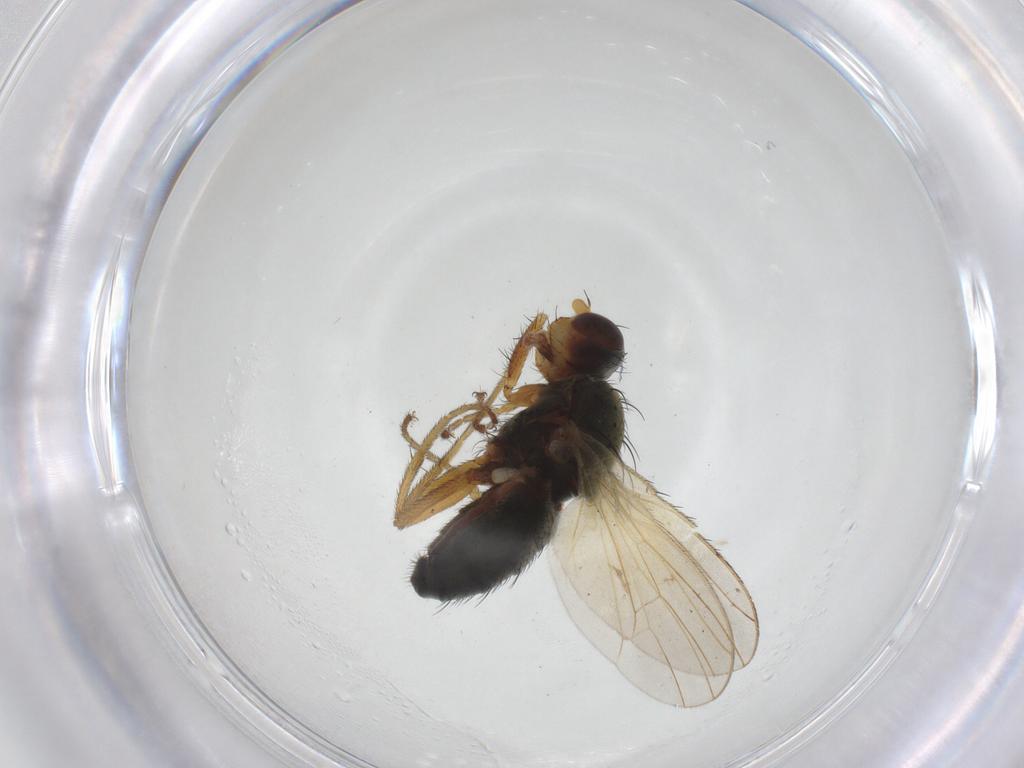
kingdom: Animalia
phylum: Arthropoda
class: Insecta
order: Diptera
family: Heleomyzidae
